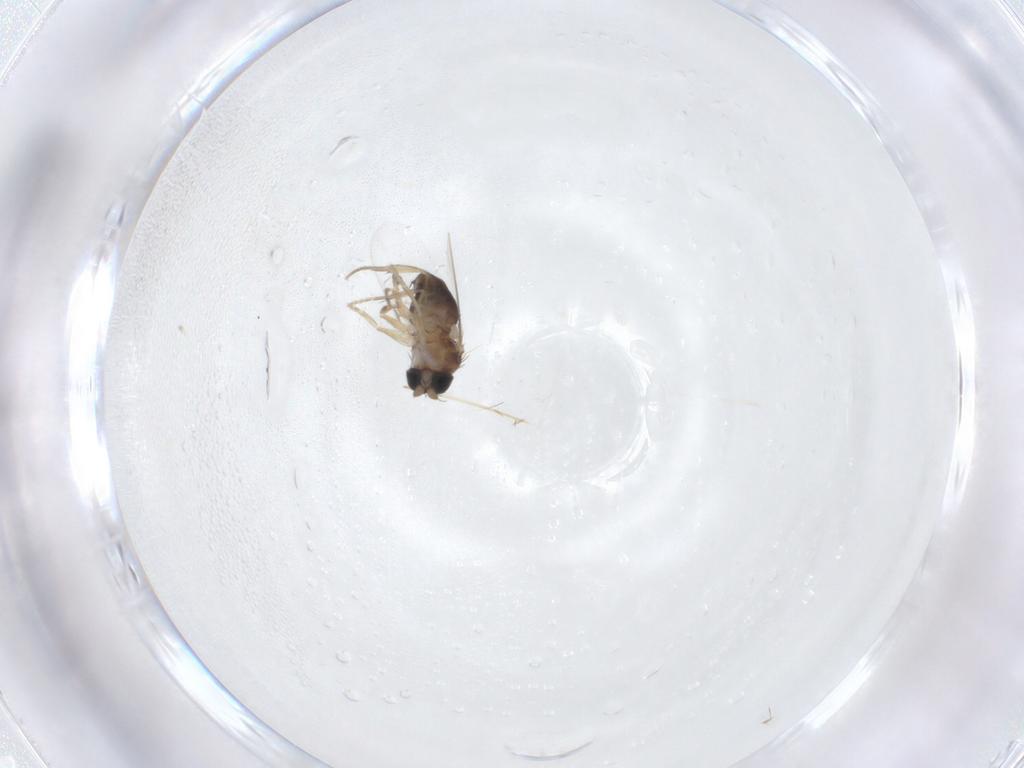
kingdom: Animalia
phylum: Arthropoda
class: Insecta
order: Diptera
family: Phoridae
